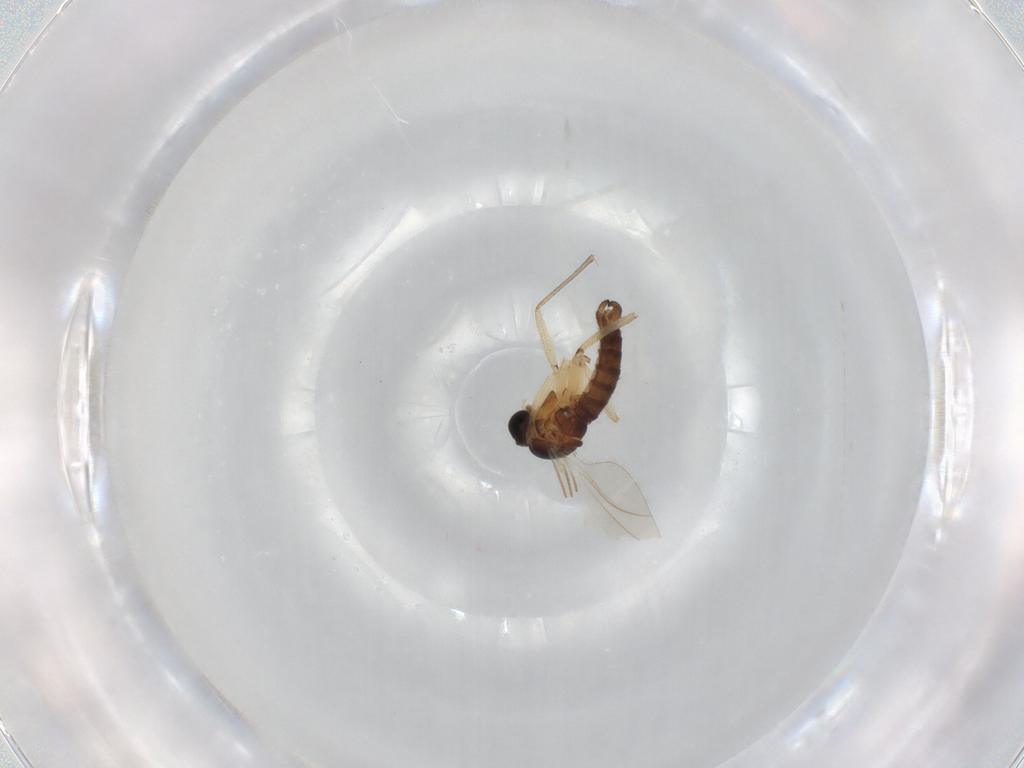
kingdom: Animalia
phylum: Arthropoda
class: Insecta
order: Diptera
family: Sciaridae
